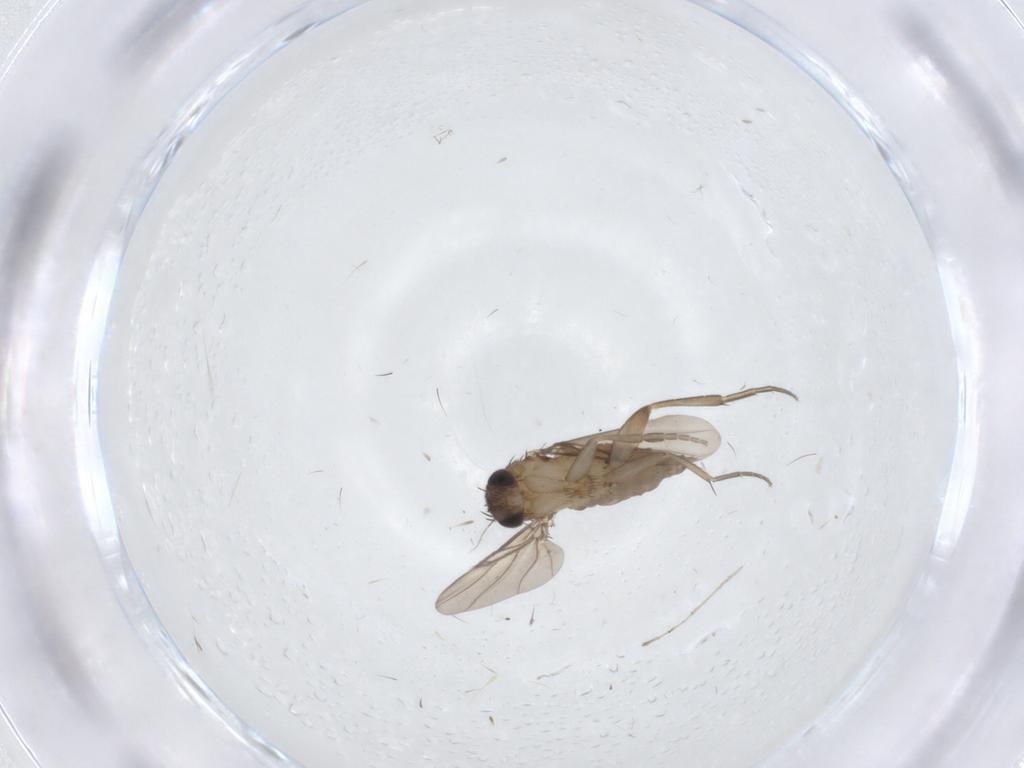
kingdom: Animalia
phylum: Arthropoda
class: Insecta
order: Diptera
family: Phoridae
